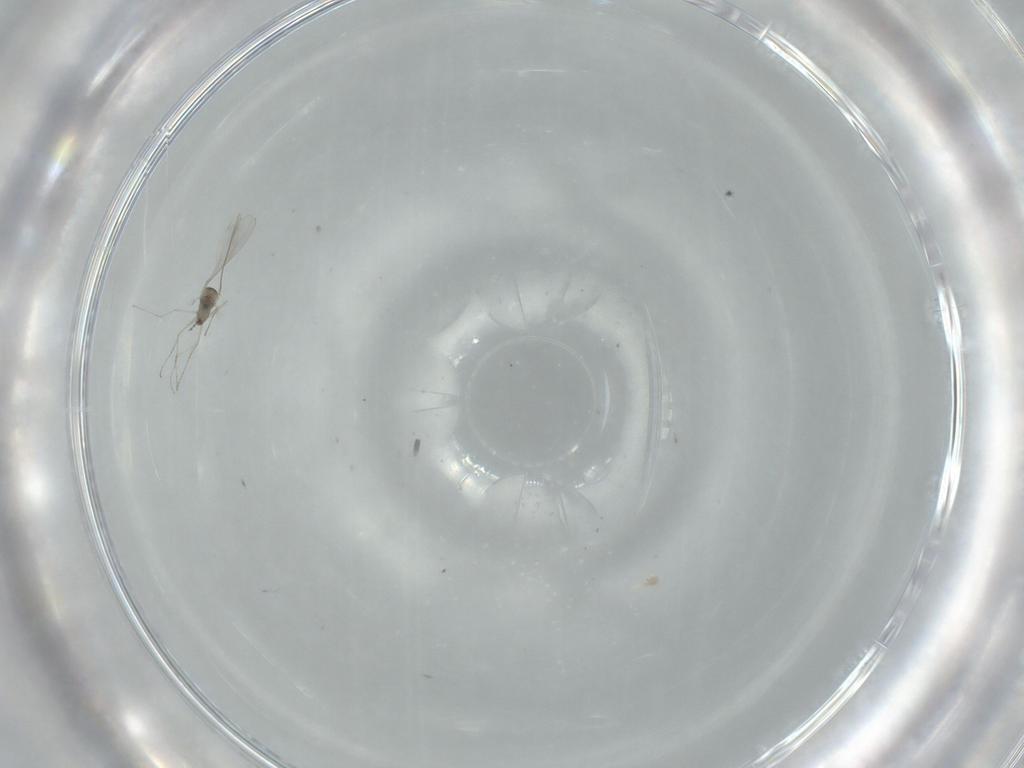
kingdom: Animalia
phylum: Arthropoda
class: Insecta
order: Diptera
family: Cecidomyiidae
